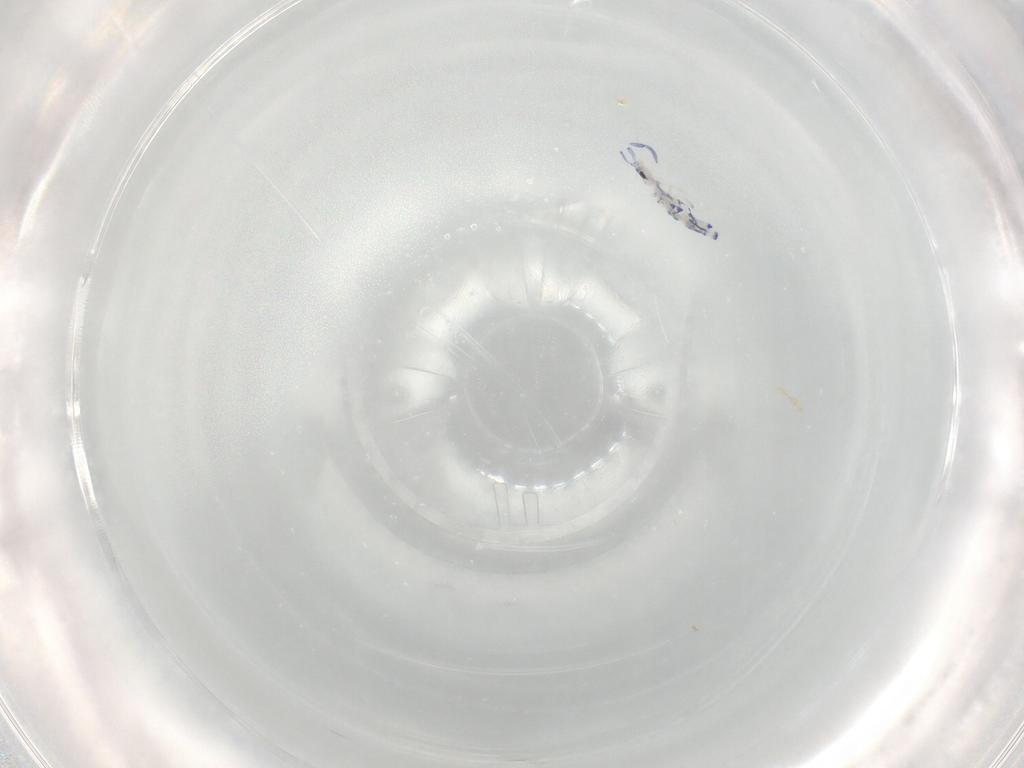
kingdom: Animalia
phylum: Arthropoda
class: Collembola
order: Entomobryomorpha
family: Entomobryidae
